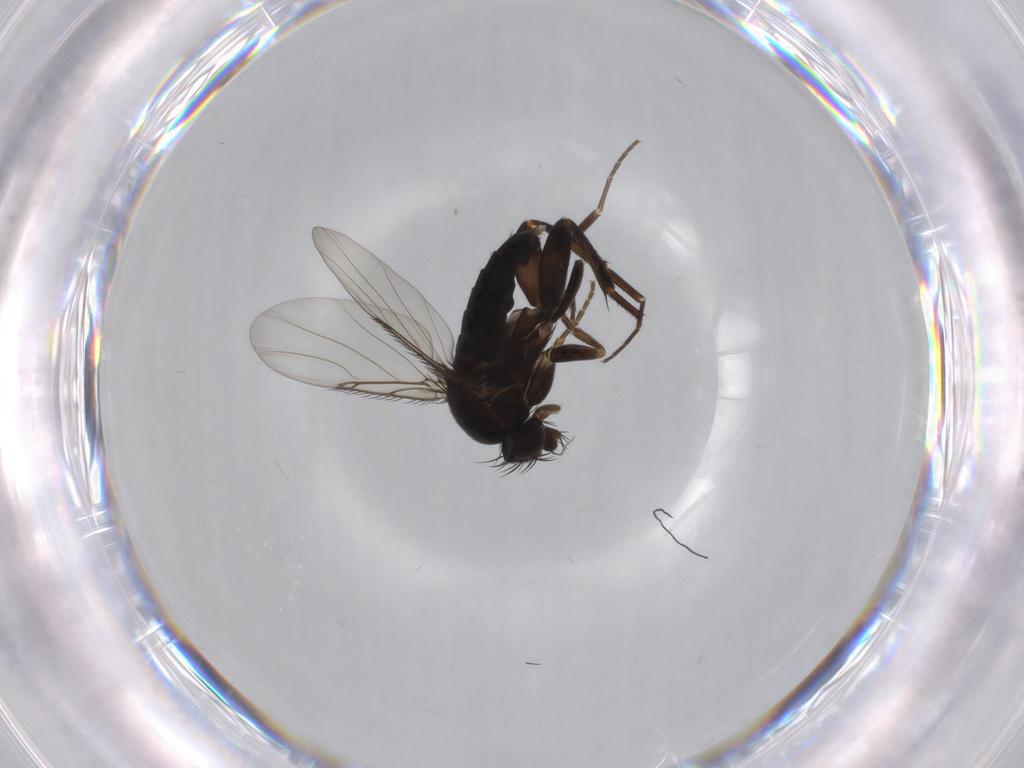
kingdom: Animalia
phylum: Arthropoda
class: Insecta
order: Diptera
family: Phoridae
